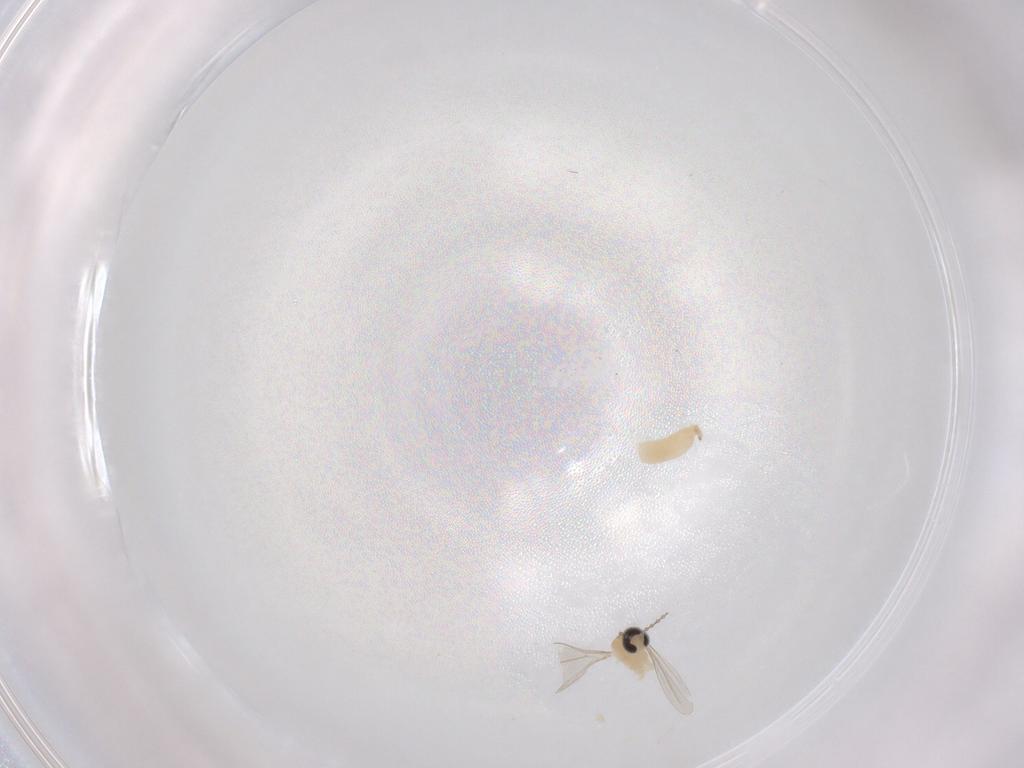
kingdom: Animalia
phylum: Arthropoda
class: Insecta
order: Diptera
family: Cecidomyiidae
